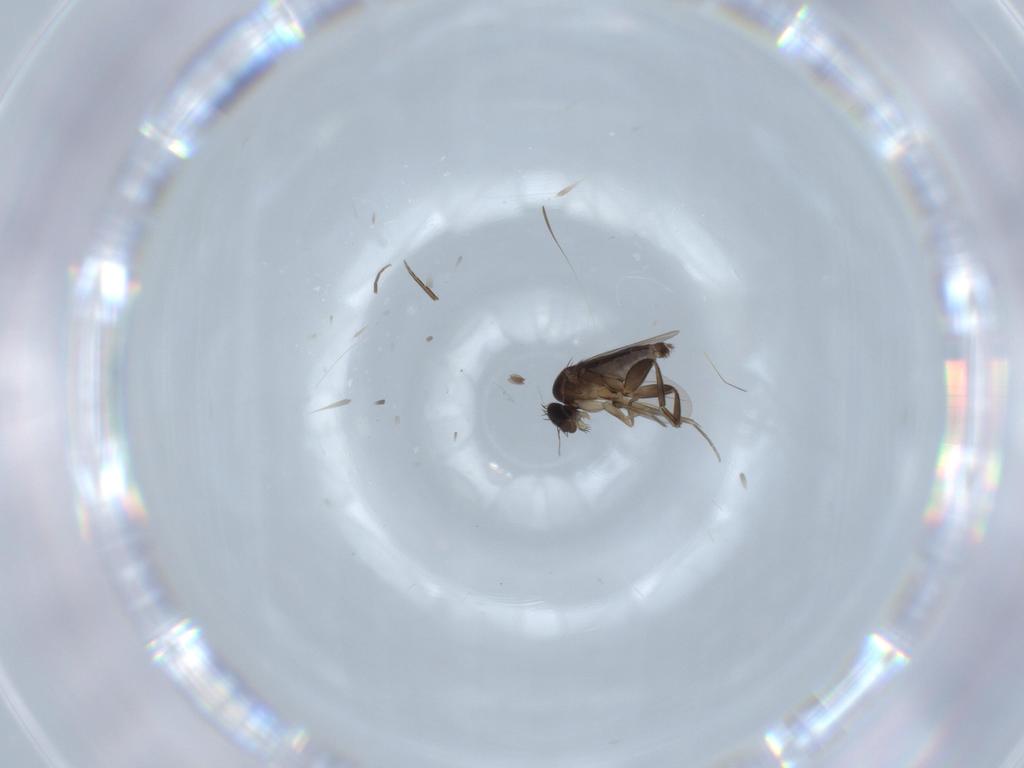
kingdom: Animalia
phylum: Arthropoda
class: Insecta
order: Diptera
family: Phoridae
